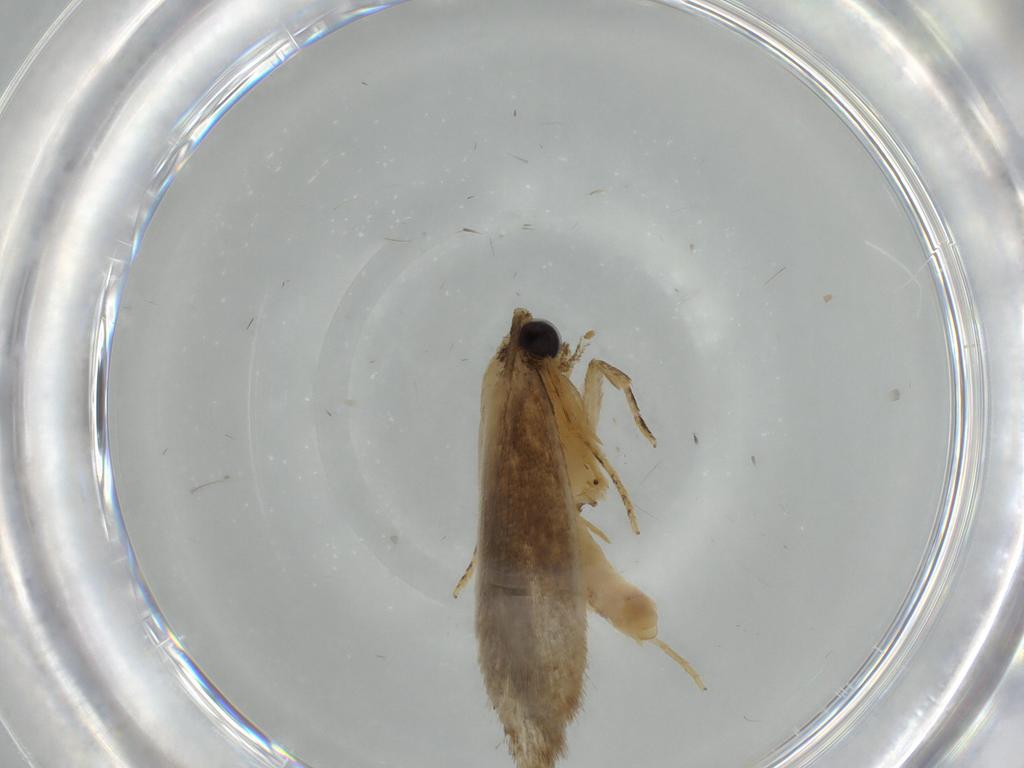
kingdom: Animalia
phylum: Arthropoda
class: Insecta
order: Lepidoptera
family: Tineidae
